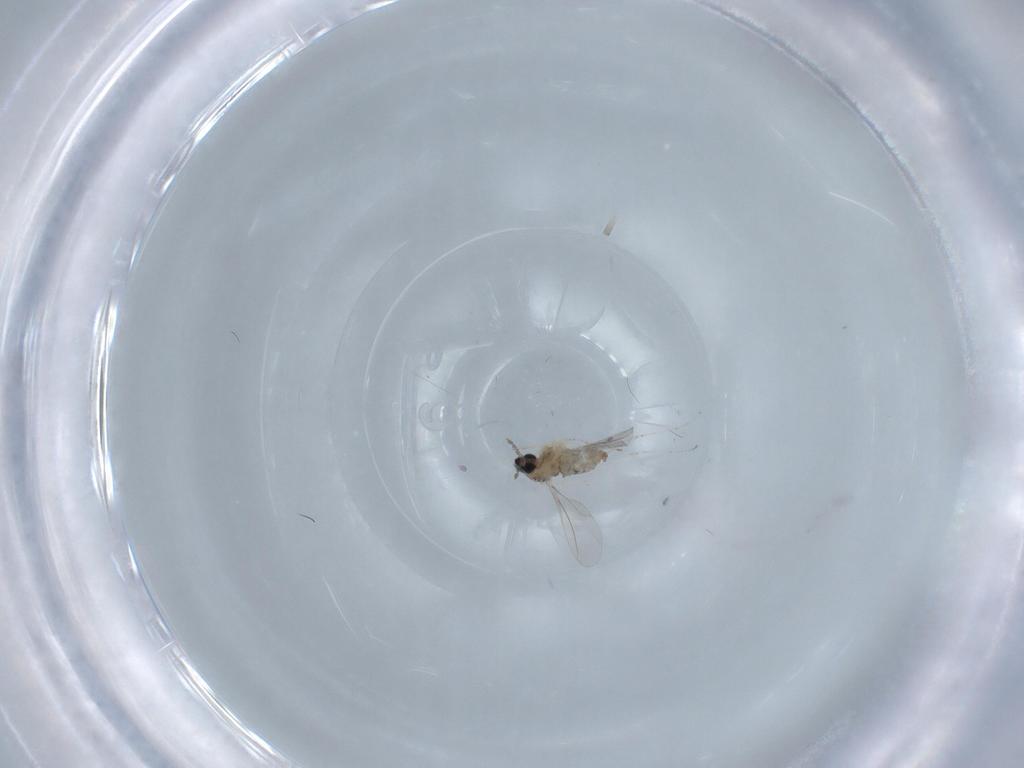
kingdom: Animalia
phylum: Arthropoda
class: Insecta
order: Diptera
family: Cecidomyiidae
